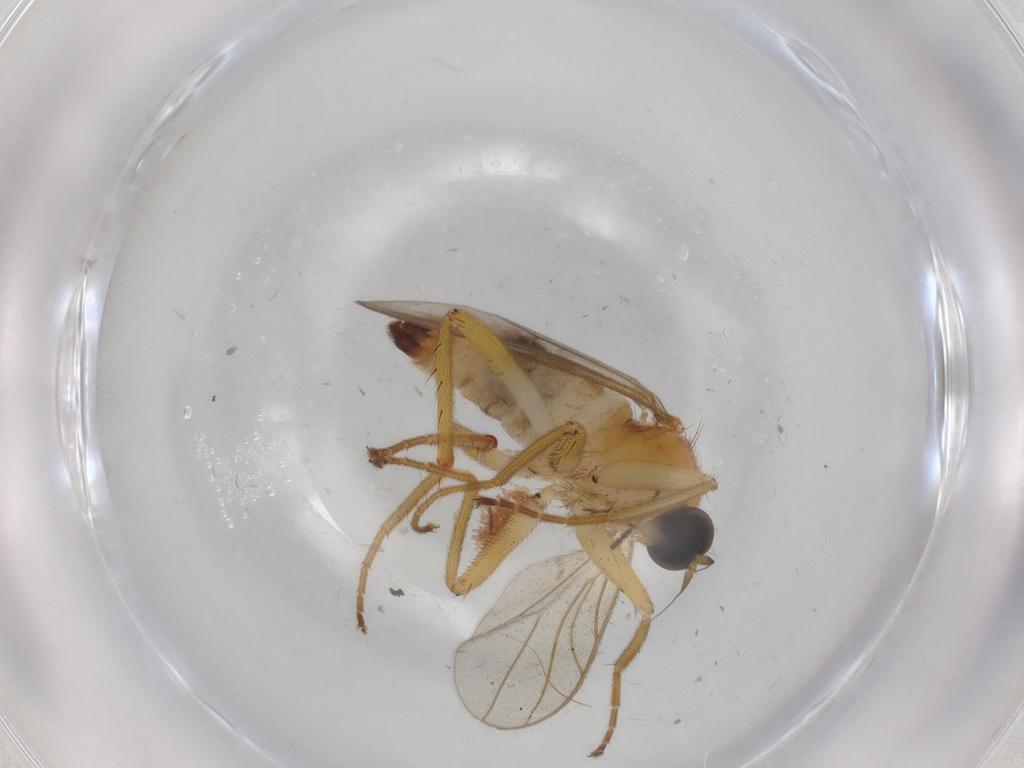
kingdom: Animalia
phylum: Arthropoda
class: Insecta
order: Diptera
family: Hybotidae
